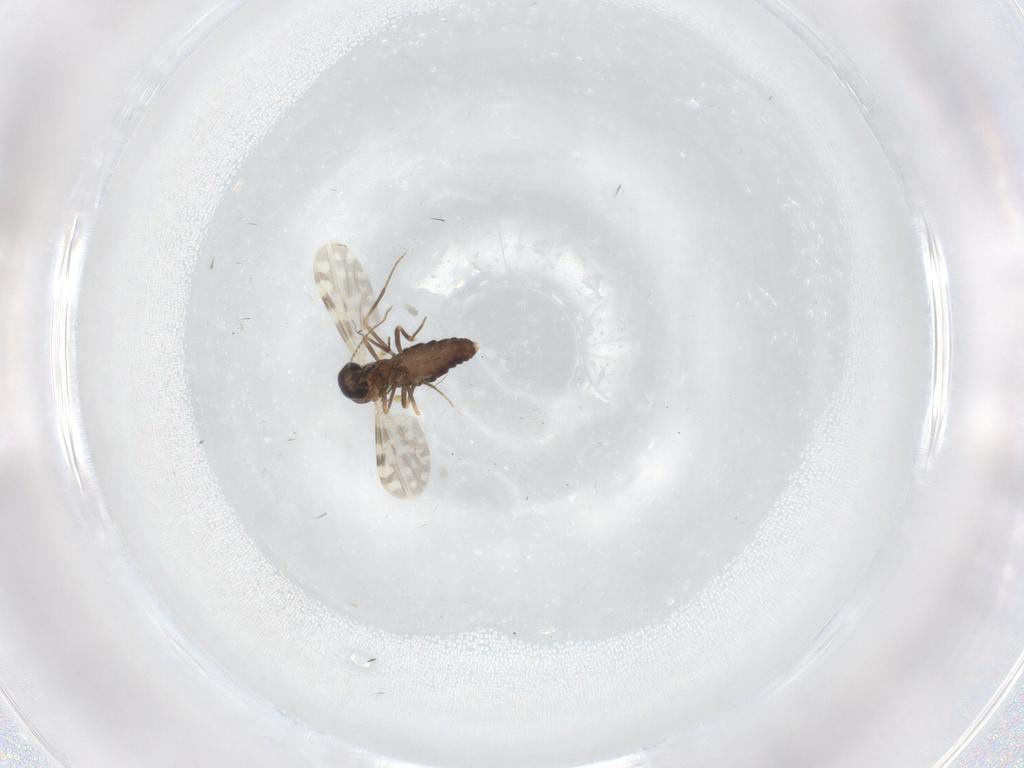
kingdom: Animalia
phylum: Arthropoda
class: Insecta
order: Diptera
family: Ceratopogonidae
